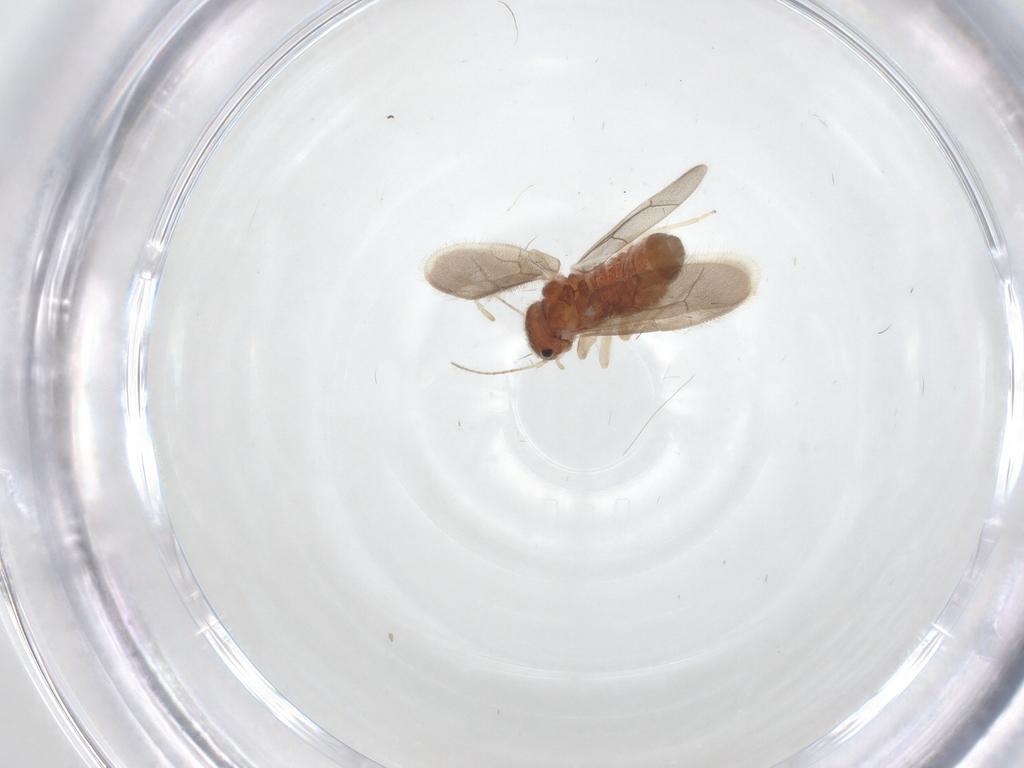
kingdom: Animalia
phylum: Arthropoda
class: Insecta
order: Psocodea
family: Archipsocidae
